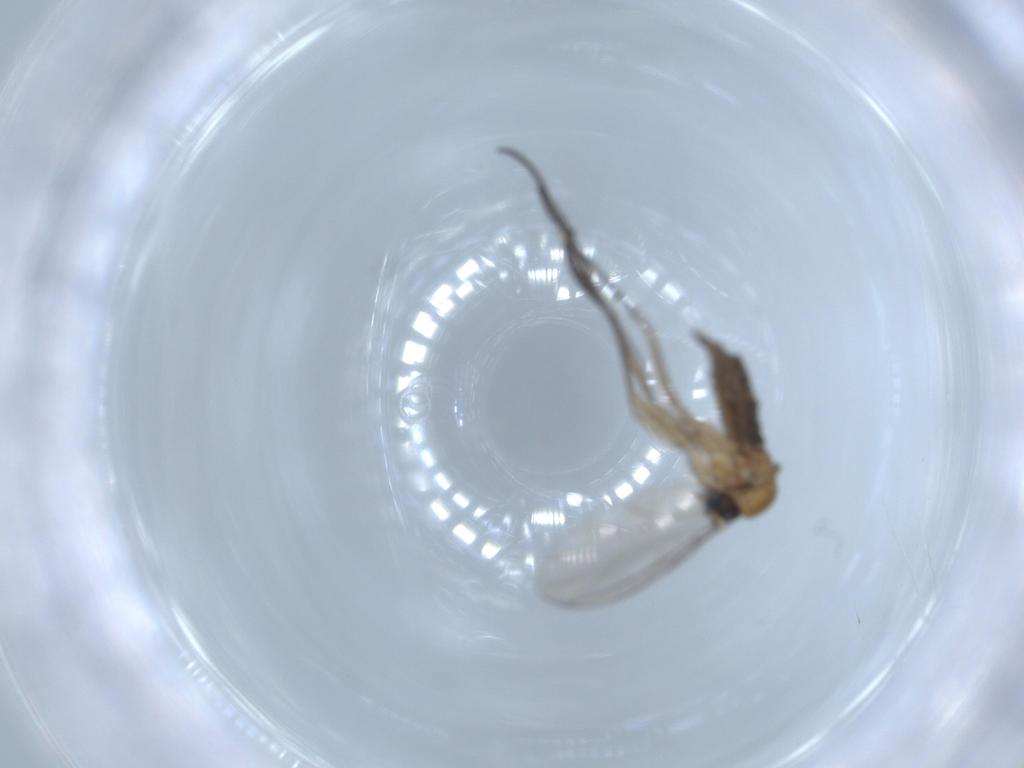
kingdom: Animalia
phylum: Arthropoda
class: Insecta
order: Diptera
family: Sciaridae
